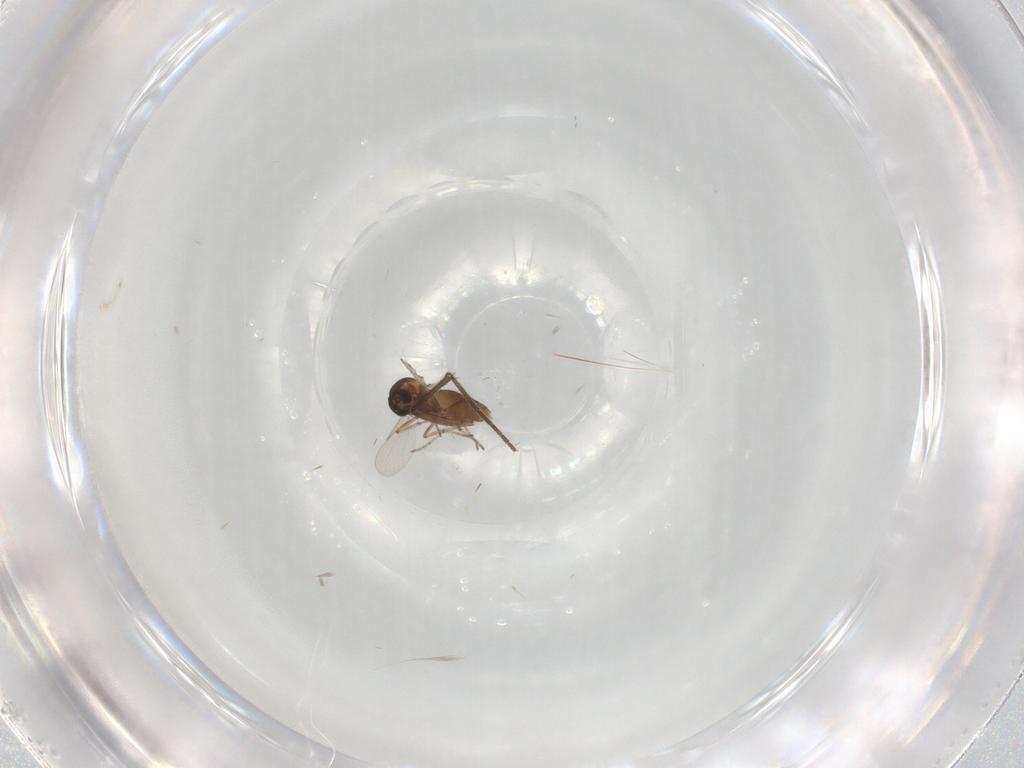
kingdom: Animalia
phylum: Arthropoda
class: Insecta
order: Diptera
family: Ceratopogonidae
